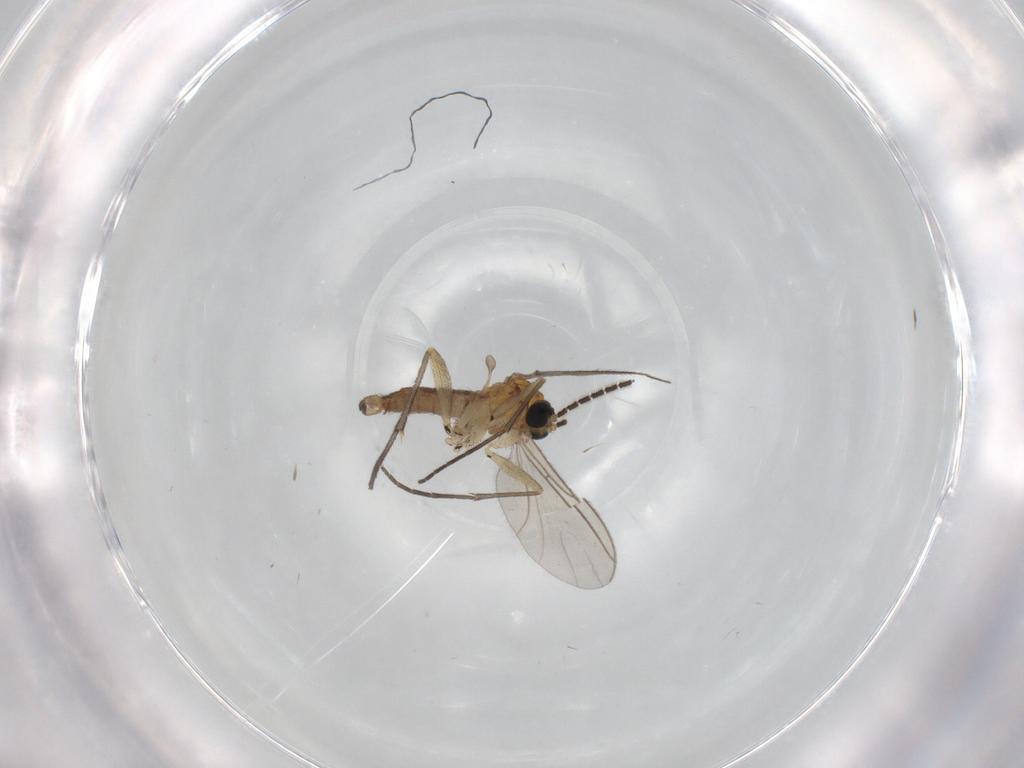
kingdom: Animalia
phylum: Arthropoda
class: Insecta
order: Diptera
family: Sciaridae
